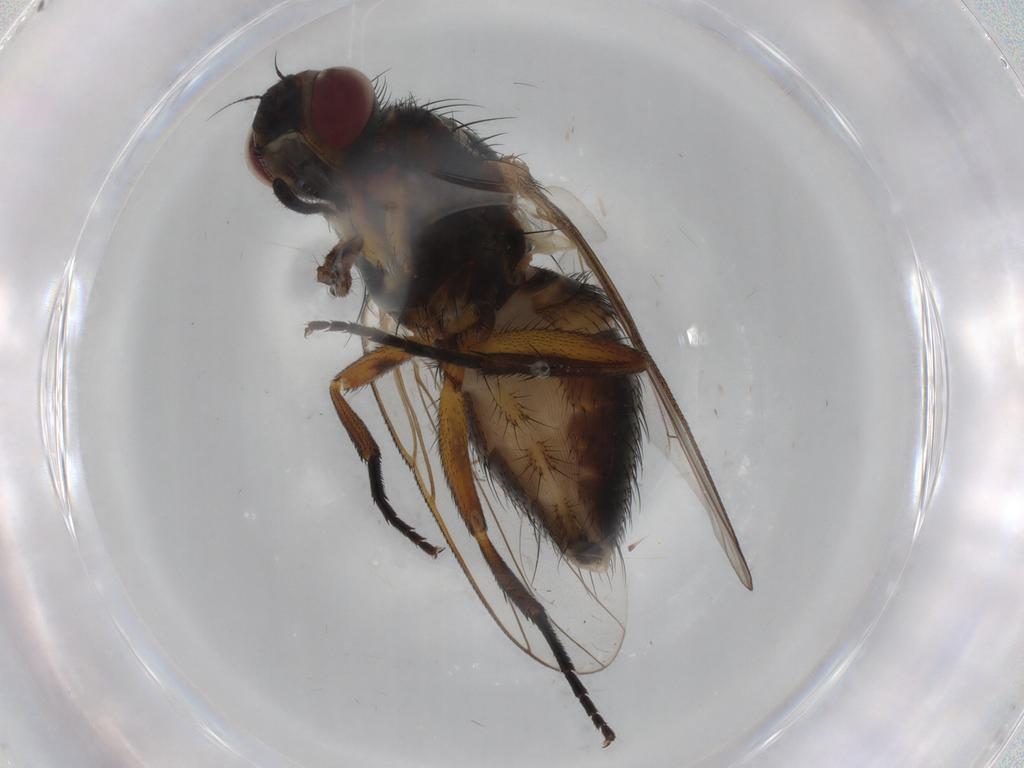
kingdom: Animalia
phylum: Arthropoda
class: Insecta
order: Diptera
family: Muscidae
